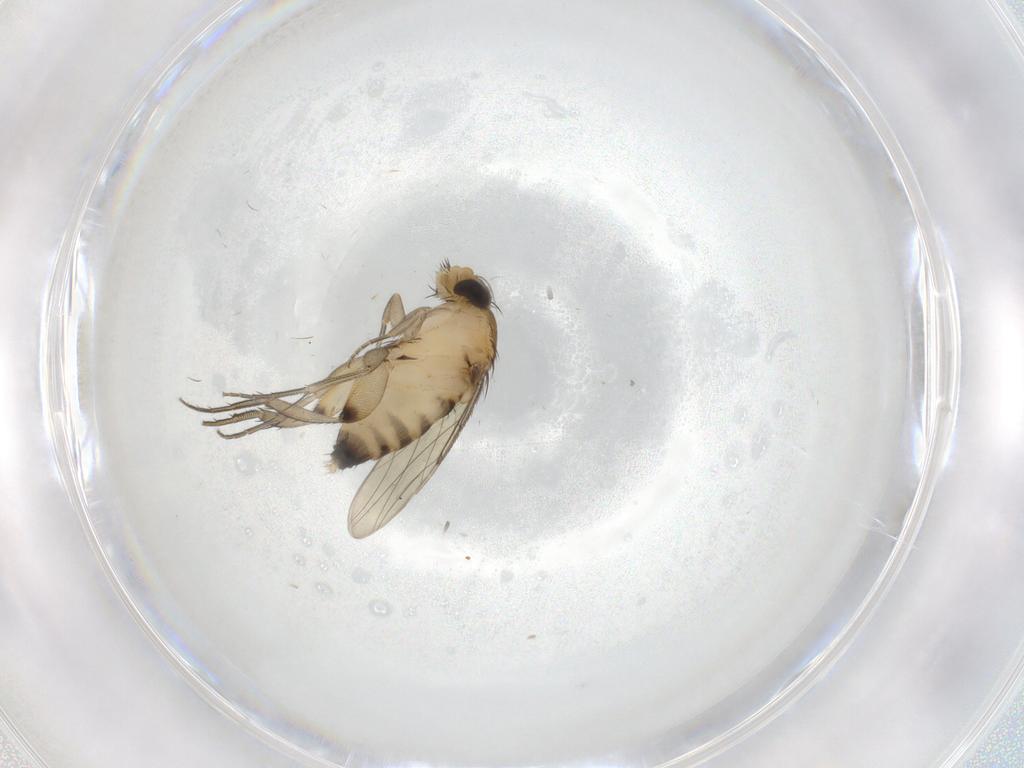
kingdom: Animalia
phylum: Arthropoda
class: Insecta
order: Diptera
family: Phoridae
